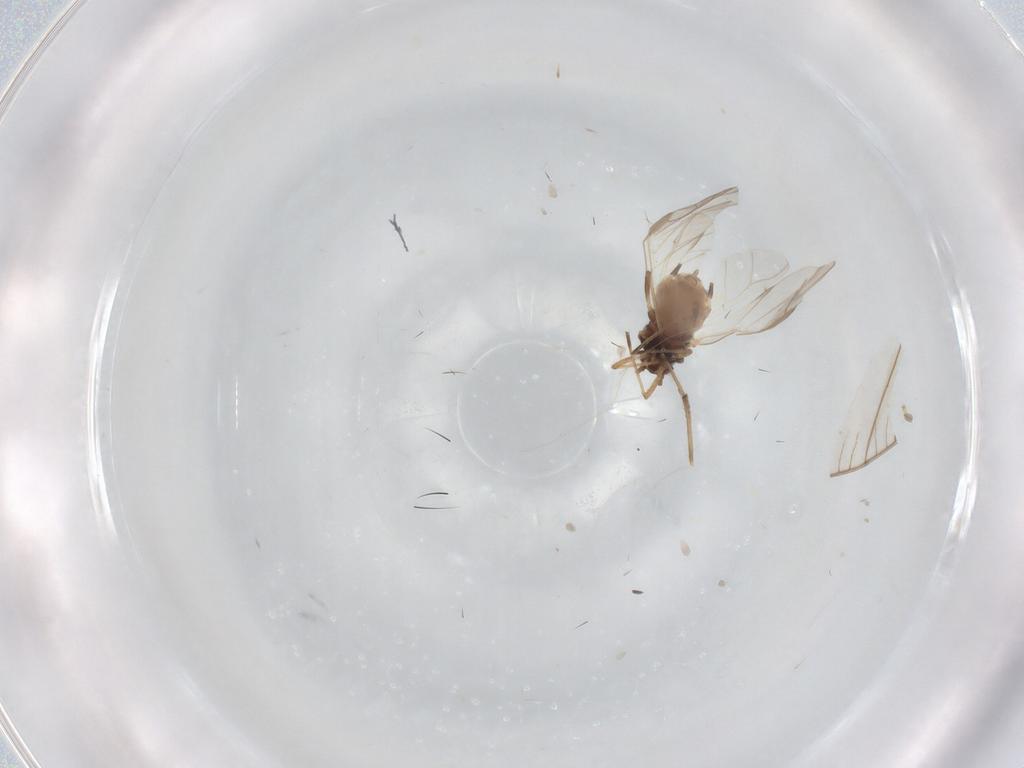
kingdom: Animalia
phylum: Arthropoda
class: Insecta
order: Hemiptera
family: Aphididae
